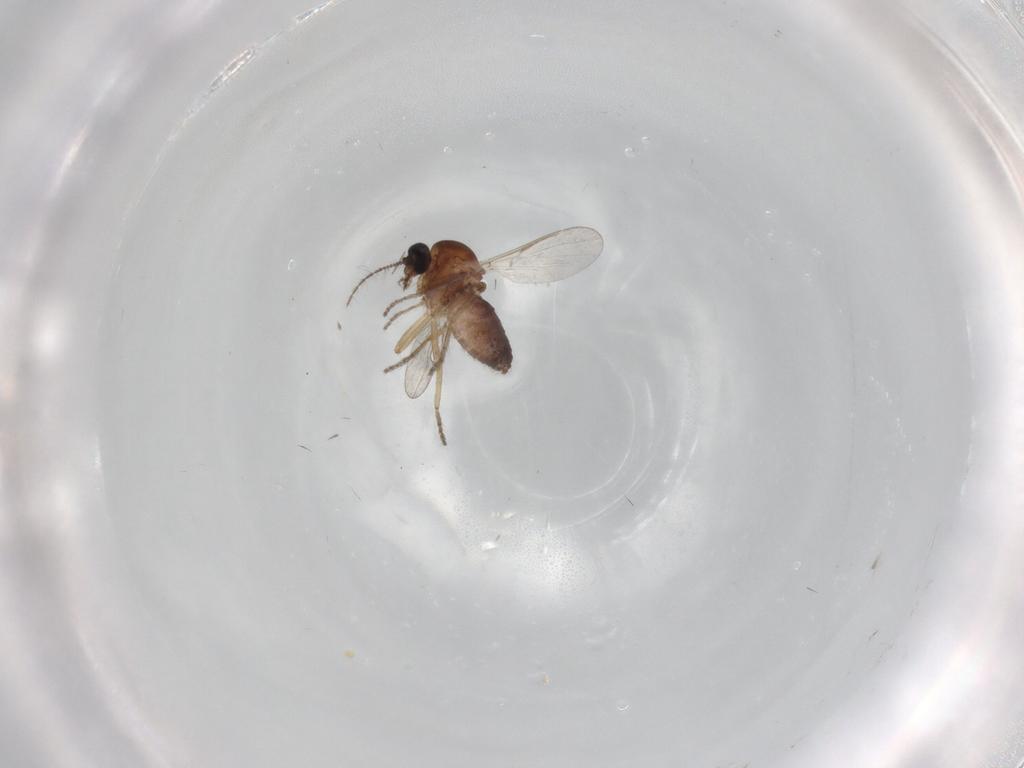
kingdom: Animalia
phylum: Arthropoda
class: Insecta
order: Diptera
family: Ceratopogonidae
